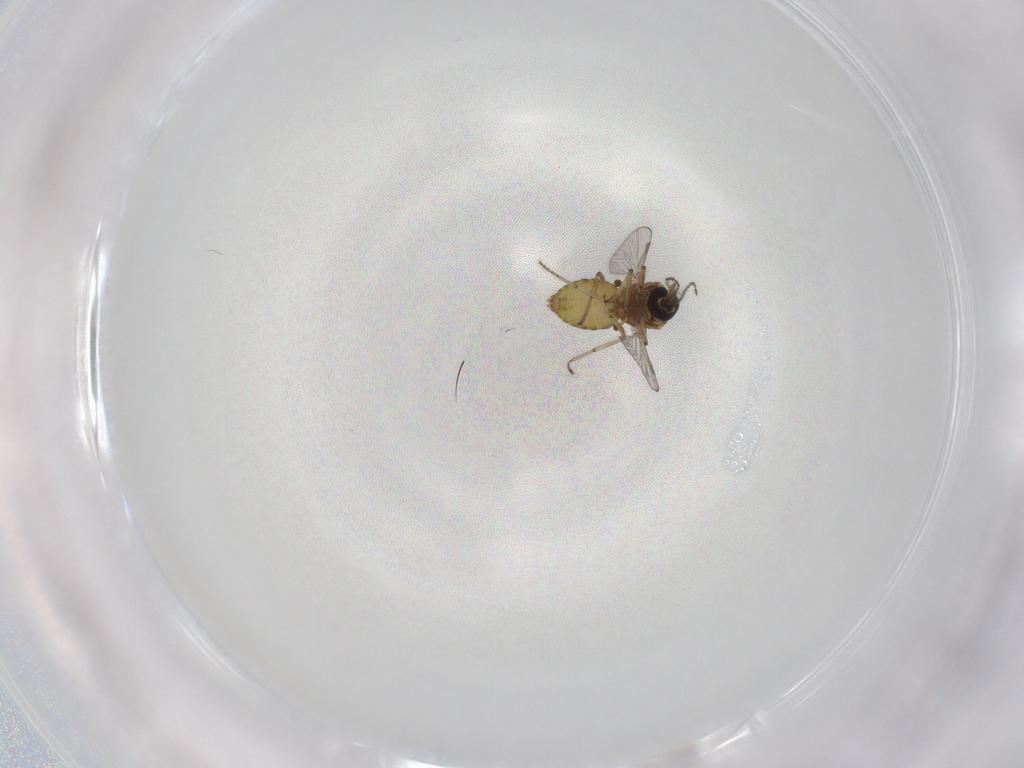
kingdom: Animalia
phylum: Arthropoda
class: Insecta
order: Diptera
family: Ceratopogonidae
